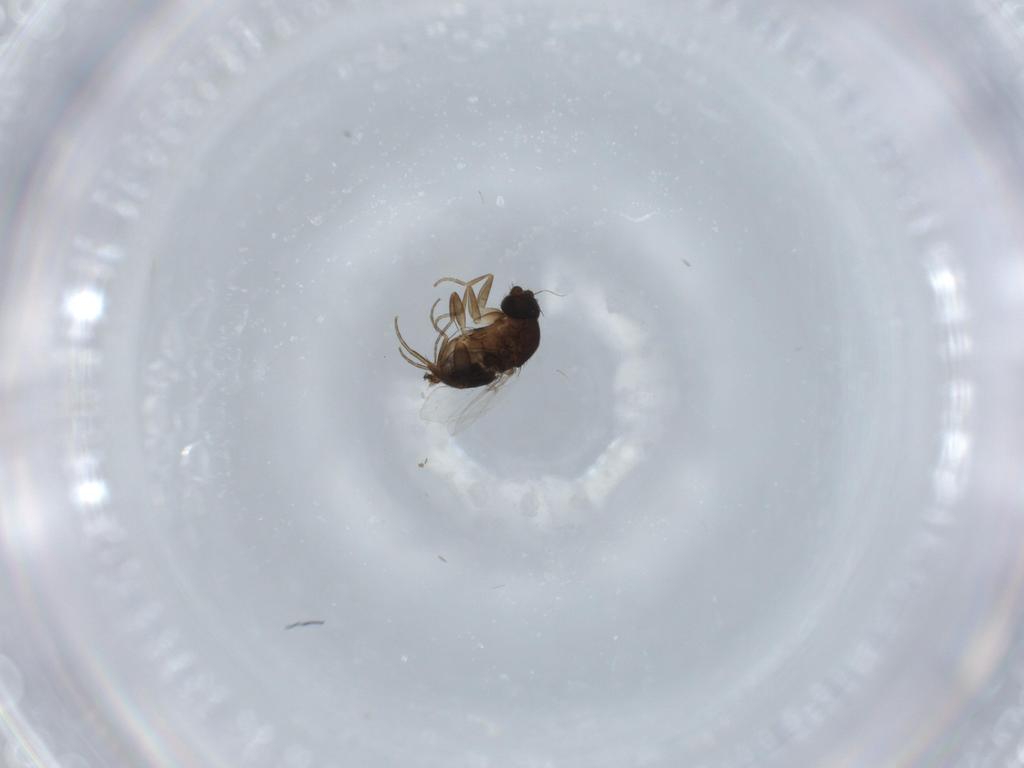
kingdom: Animalia
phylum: Arthropoda
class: Insecta
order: Diptera
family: Phoridae
